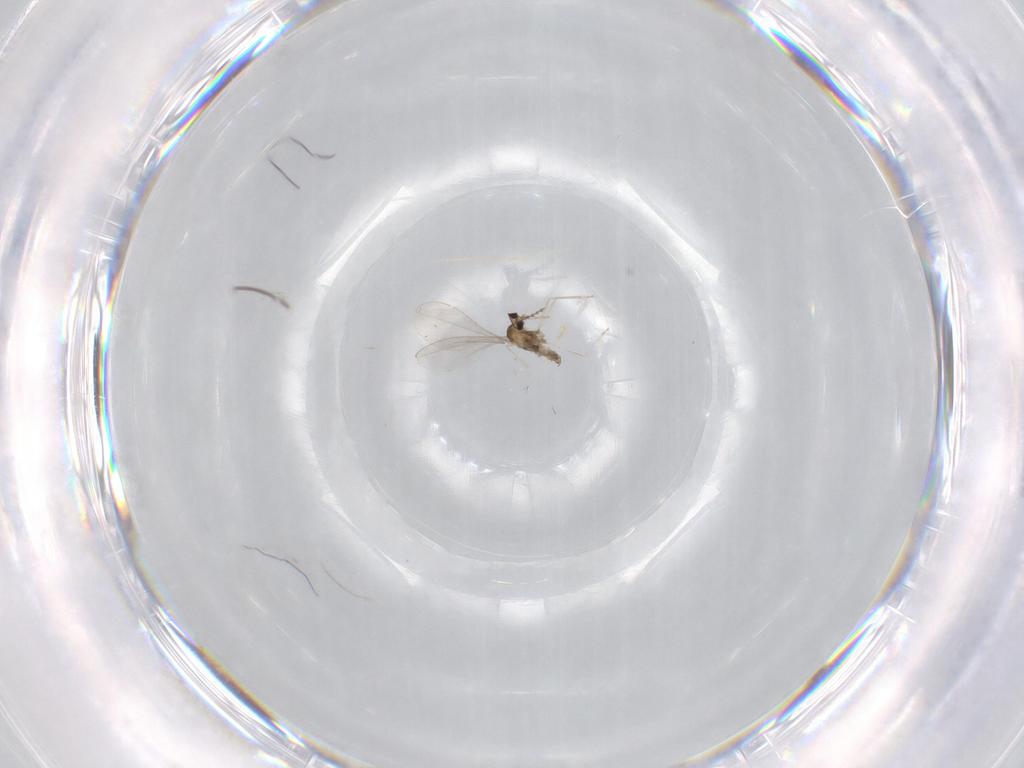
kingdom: Animalia
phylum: Arthropoda
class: Insecta
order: Diptera
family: Cecidomyiidae
